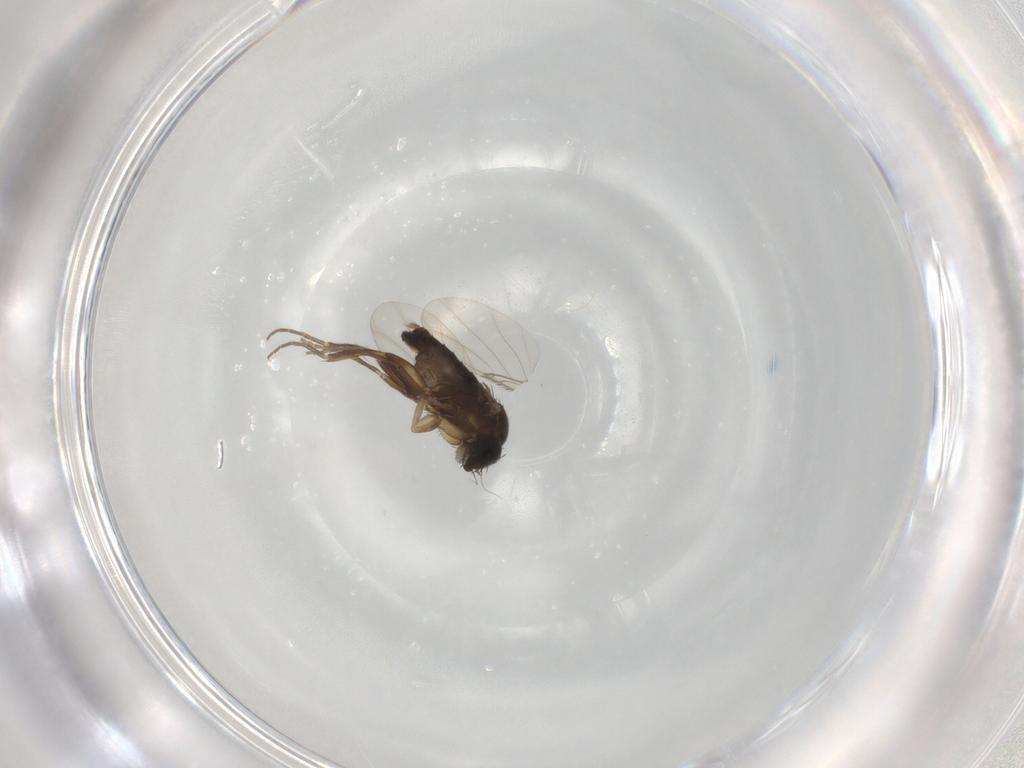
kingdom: Animalia
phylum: Arthropoda
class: Insecta
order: Diptera
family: Phoridae
